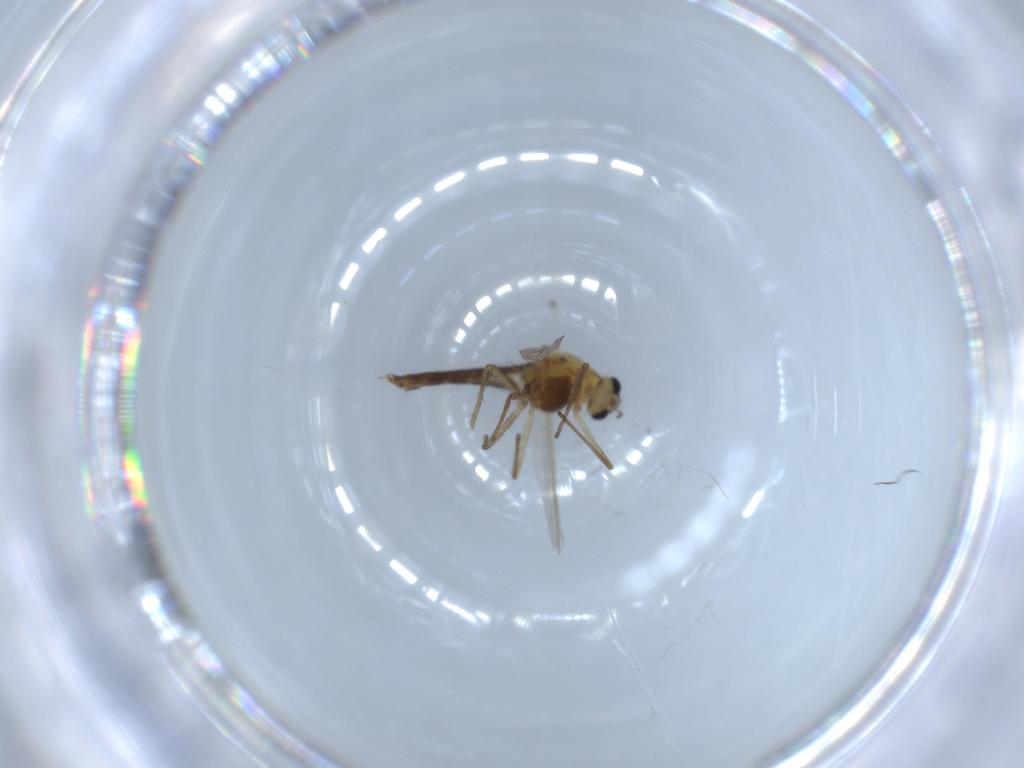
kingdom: Animalia
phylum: Arthropoda
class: Insecta
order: Diptera
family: Chironomidae
